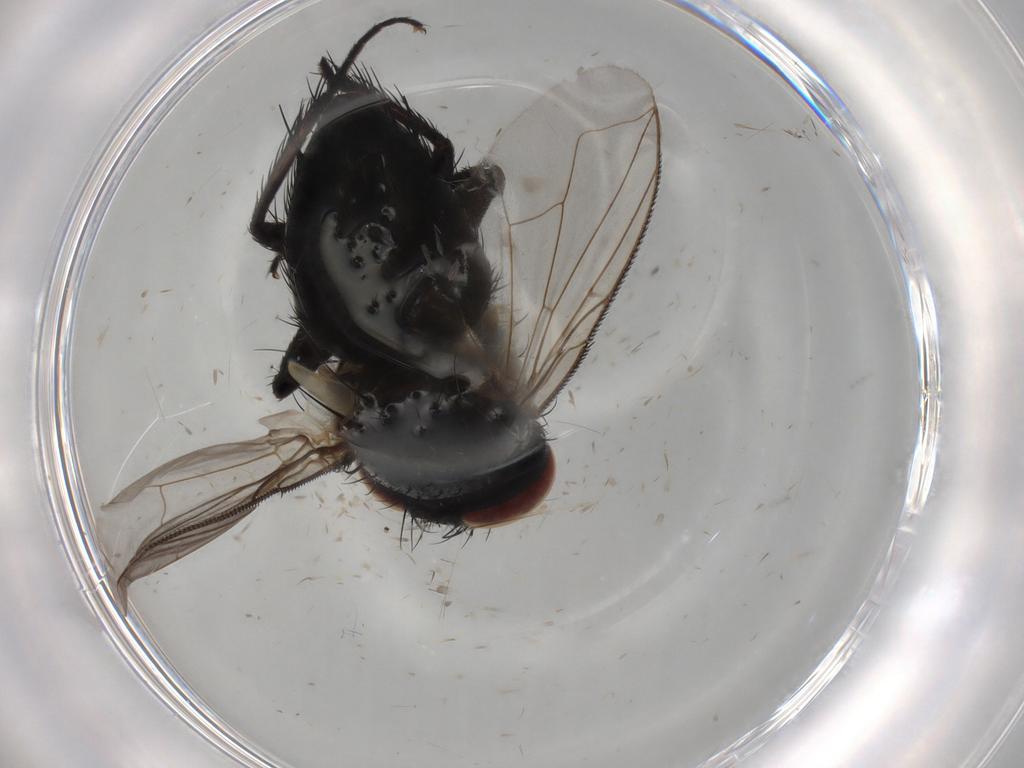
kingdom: Animalia
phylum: Arthropoda
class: Insecta
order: Diptera
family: Tachinidae
